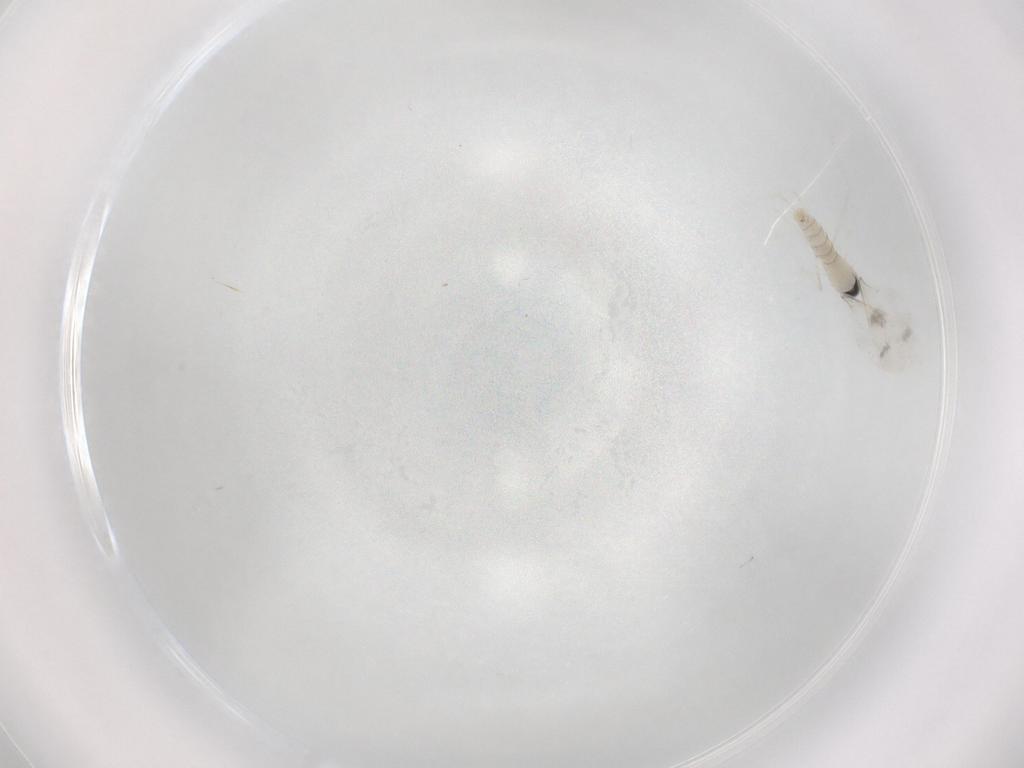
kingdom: Animalia
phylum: Arthropoda
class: Insecta
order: Diptera
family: Cecidomyiidae
